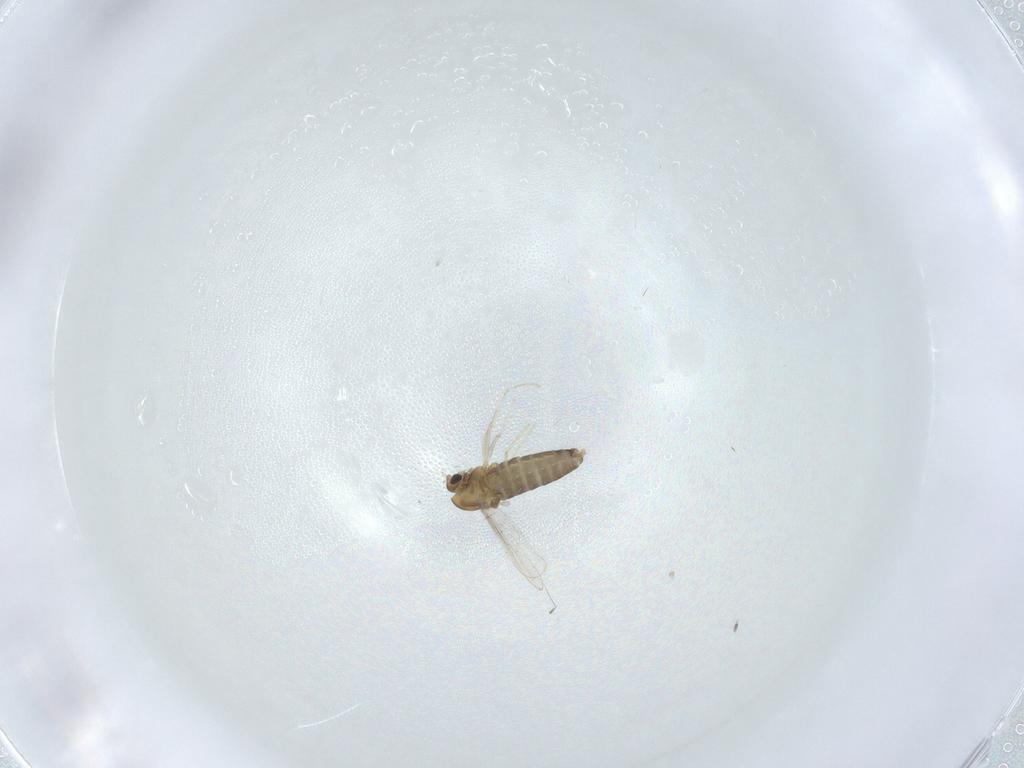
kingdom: Animalia
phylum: Arthropoda
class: Insecta
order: Diptera
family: Chironomidae
